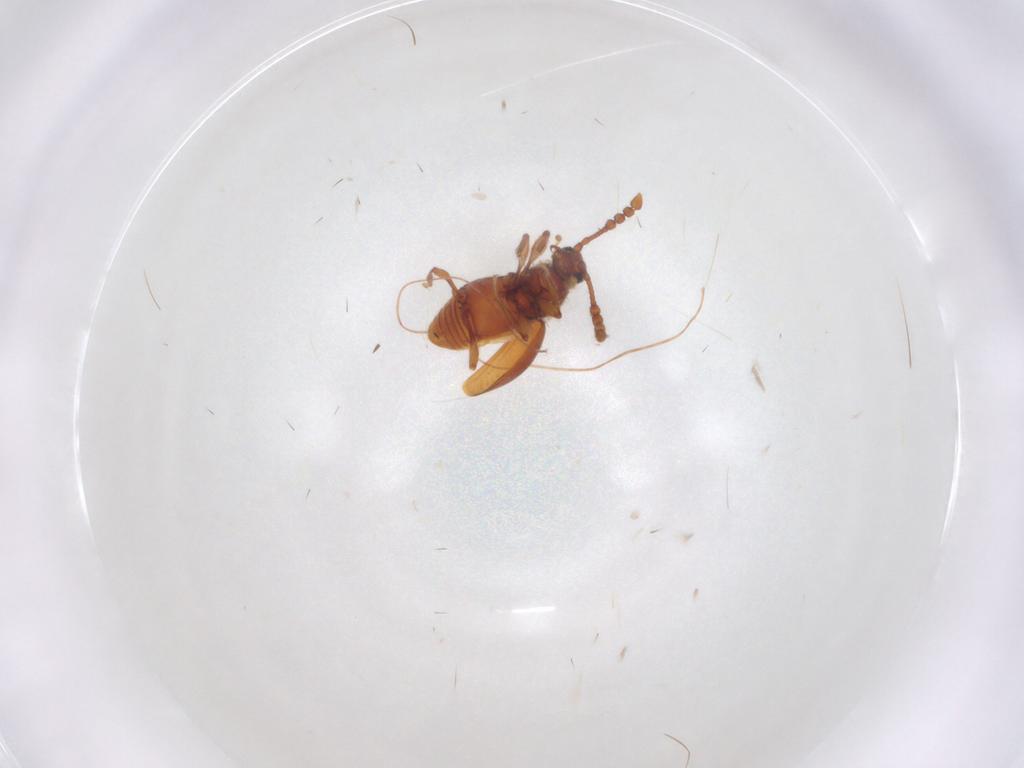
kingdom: Animalia
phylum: Arthropoda
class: Insecta
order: Coleoptera
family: Staphylinidae
